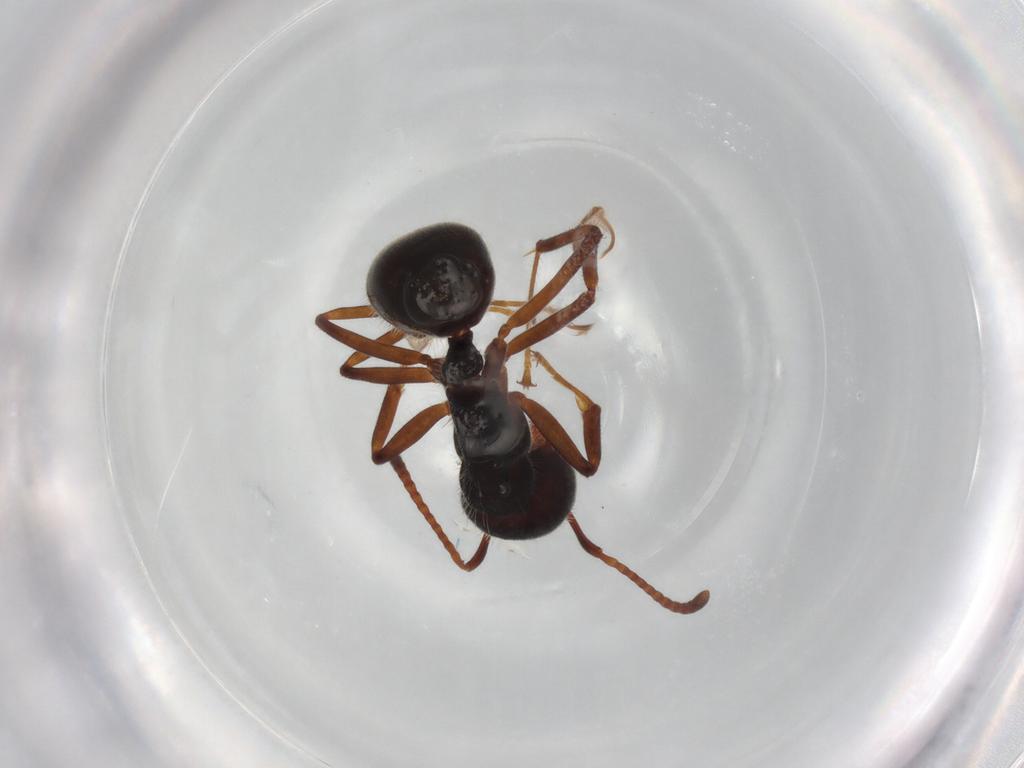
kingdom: Animalia
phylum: Arthropoda
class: Insecta
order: Hymenoptera
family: Formicidae
